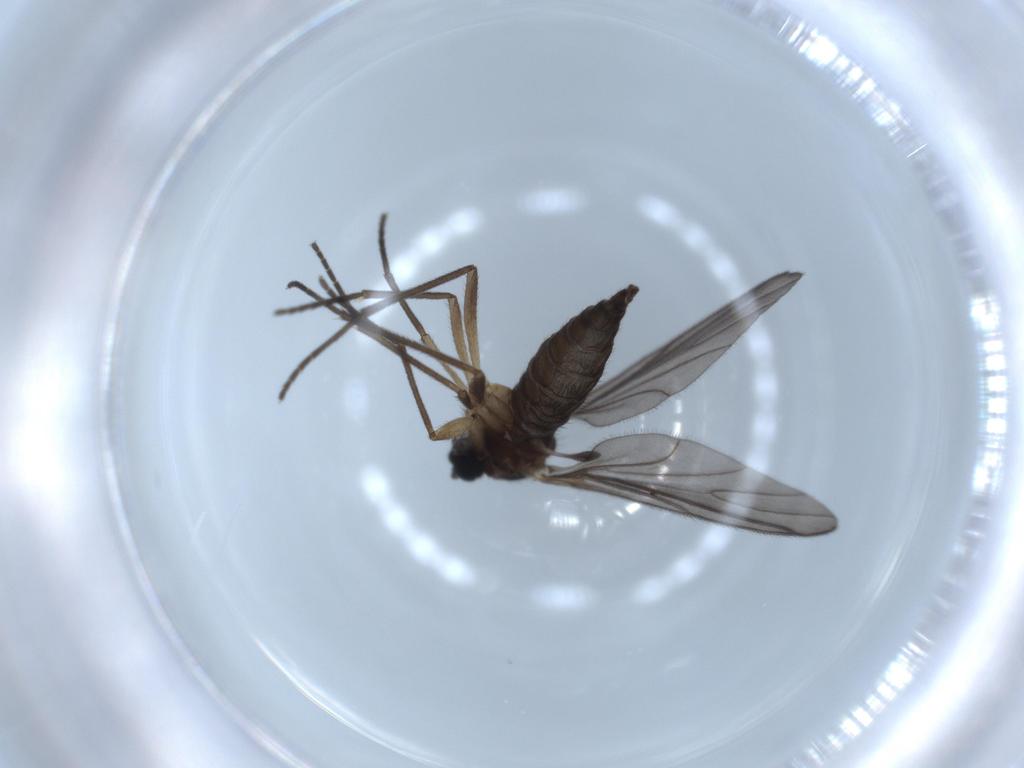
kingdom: Animalia
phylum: Arthropoda
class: Insecta
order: Diptera
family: Sciaridae
